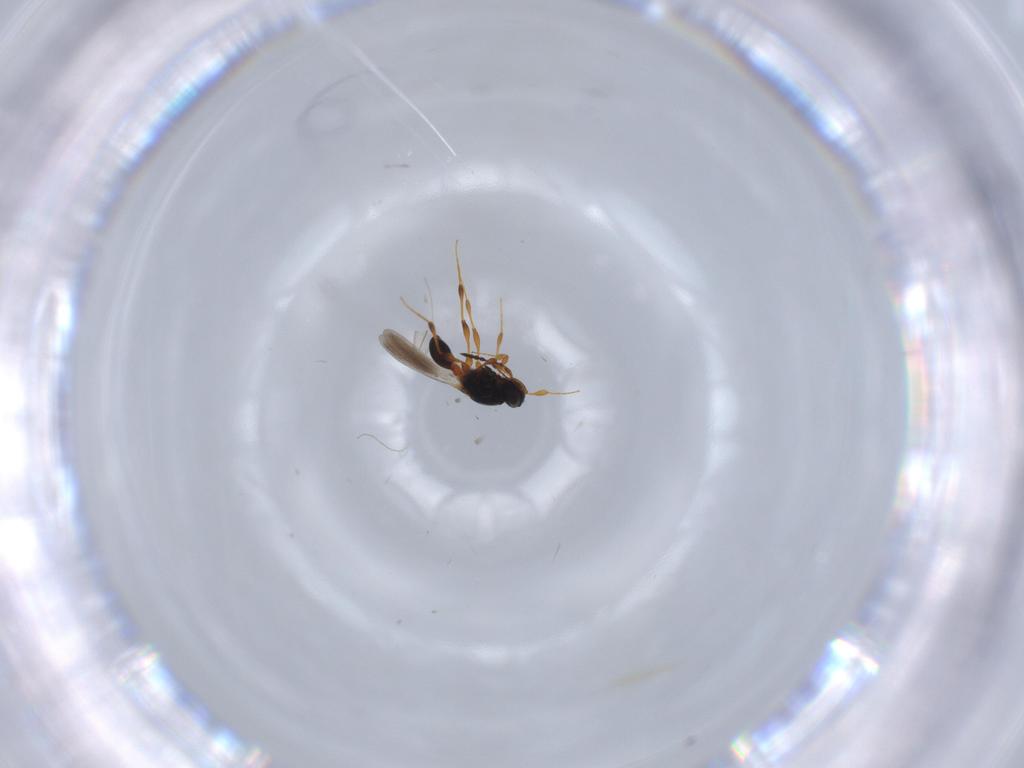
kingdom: Animalia
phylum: Arthropoda
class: Insecta
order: Hymenoptera
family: Platygastridae
